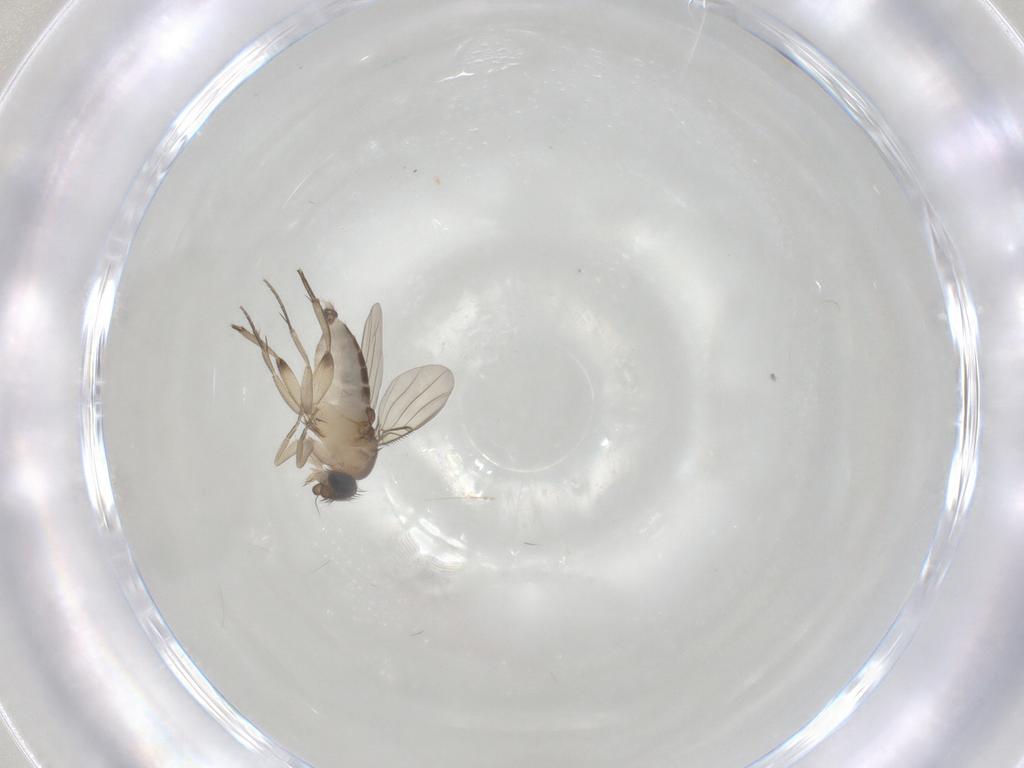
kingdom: Animalia
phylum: Arthropoda
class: Insecta
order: Diptera
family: Phoridae
